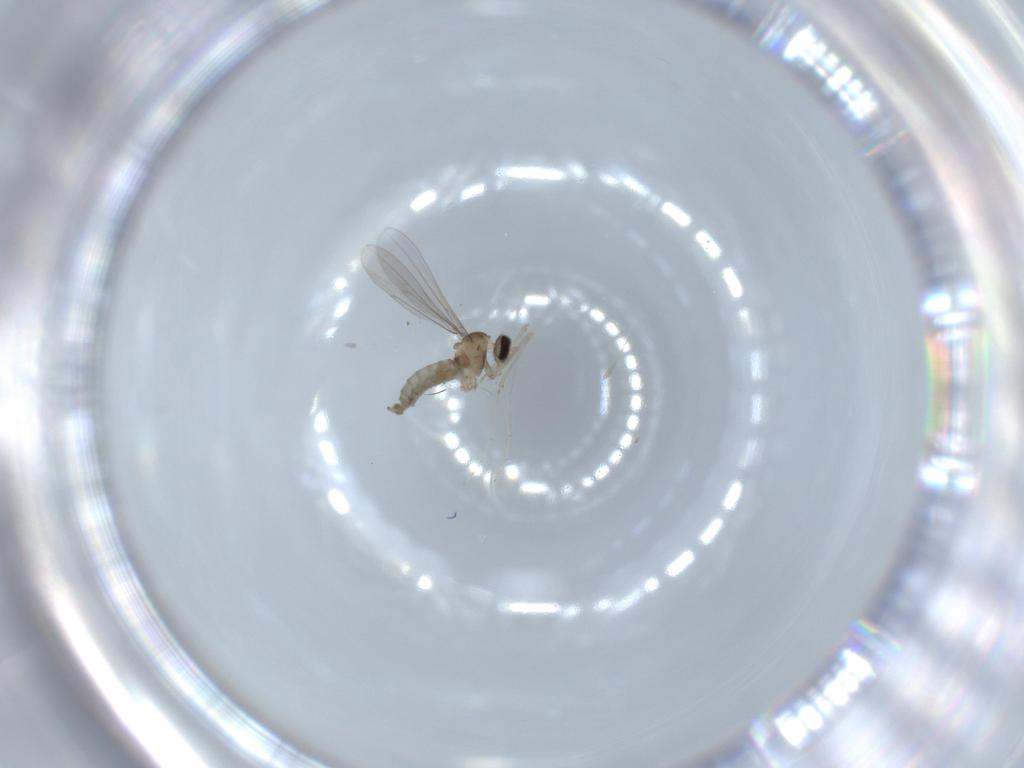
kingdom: Animalia
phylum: Arthropoda
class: Insecta
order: Diptera
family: Cecidomyiidae
